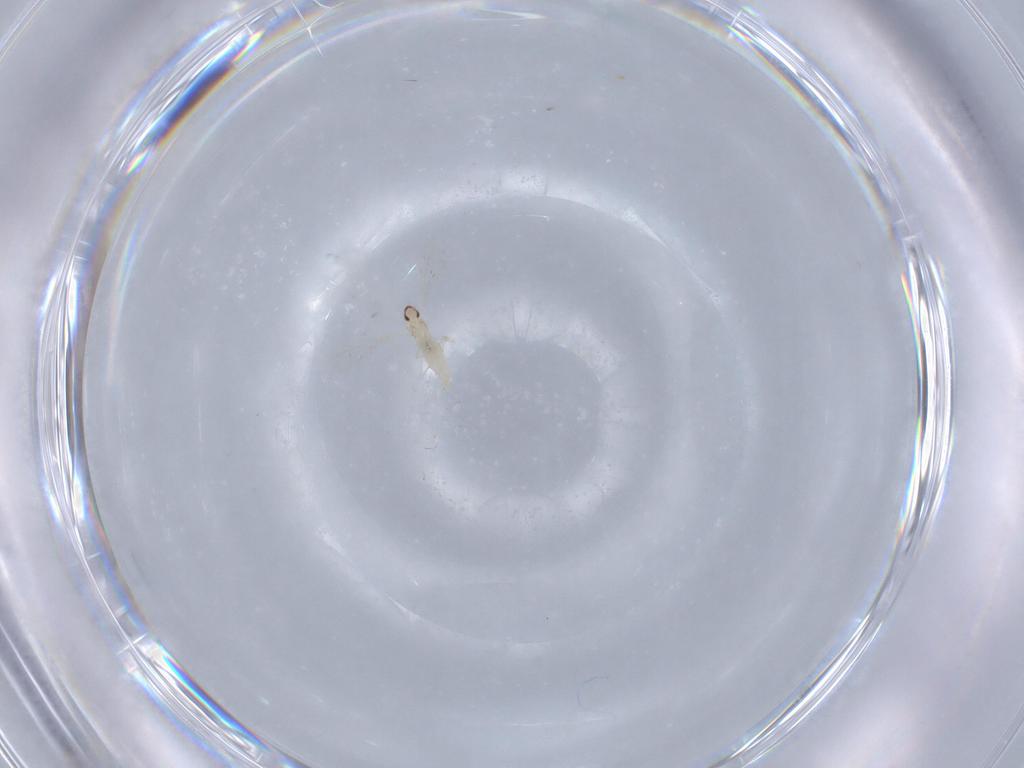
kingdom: Animalia
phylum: Arthropoda
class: Insecta
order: Diptera
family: Cecidomyiidae
